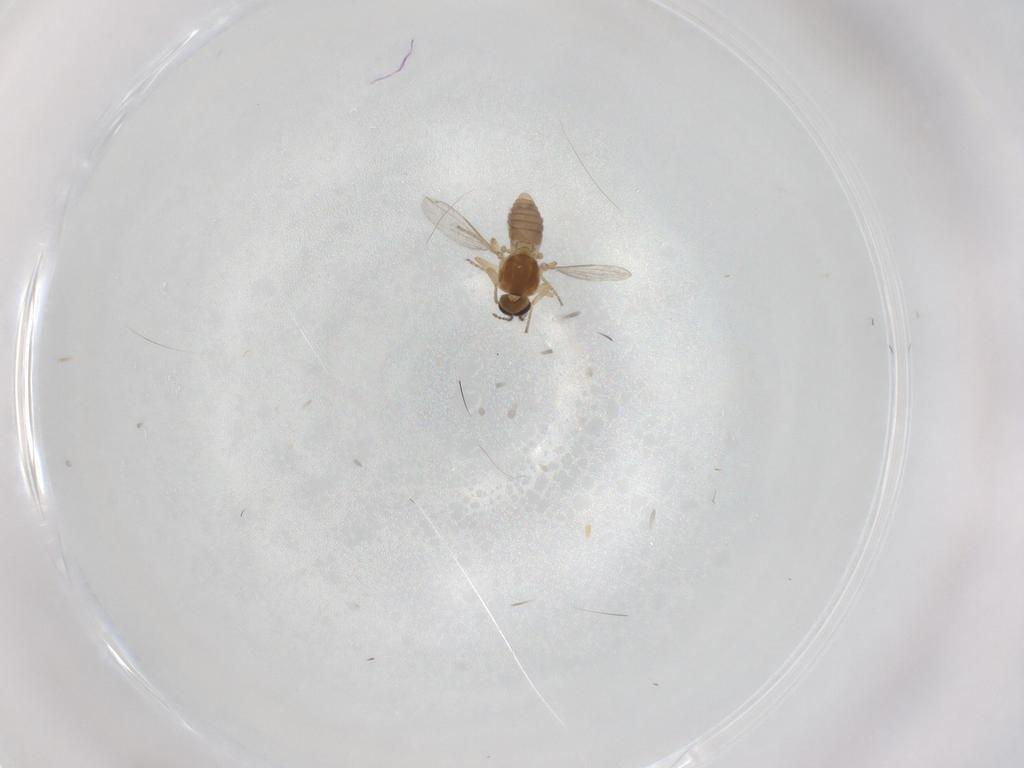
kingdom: Animalia
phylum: Arthropoda
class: Insecta
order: Diptera
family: Ceratopogonidae
